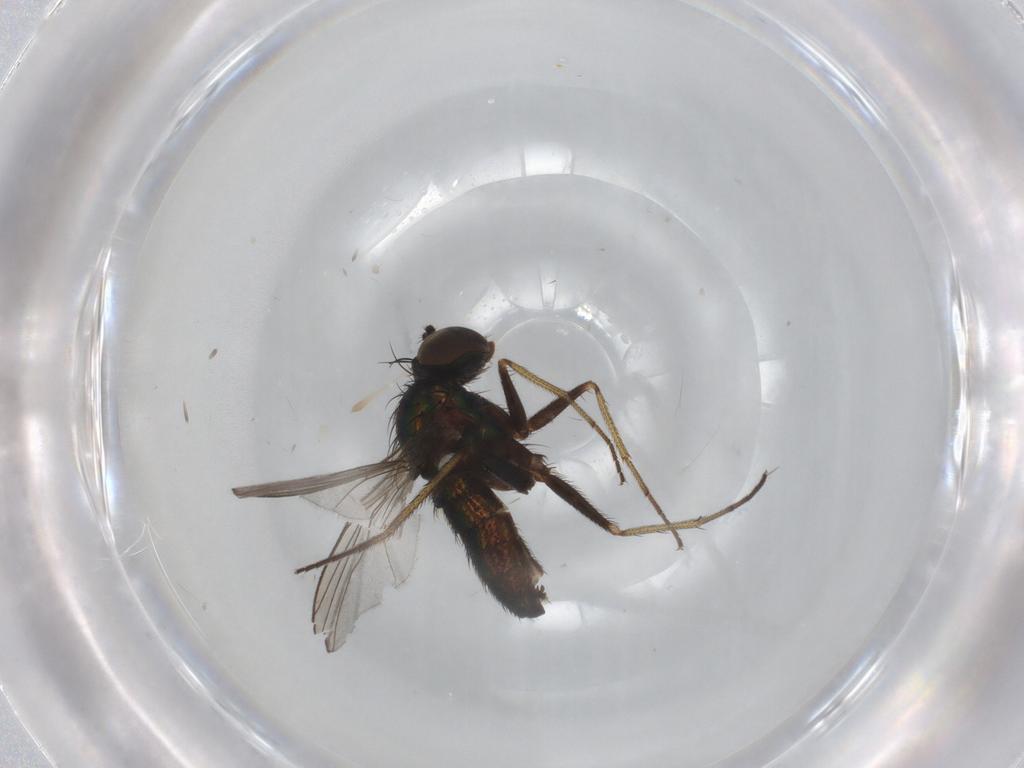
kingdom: Animalia
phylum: Arthropoda
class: Insecta
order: Diptera
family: Dolichopodidae
